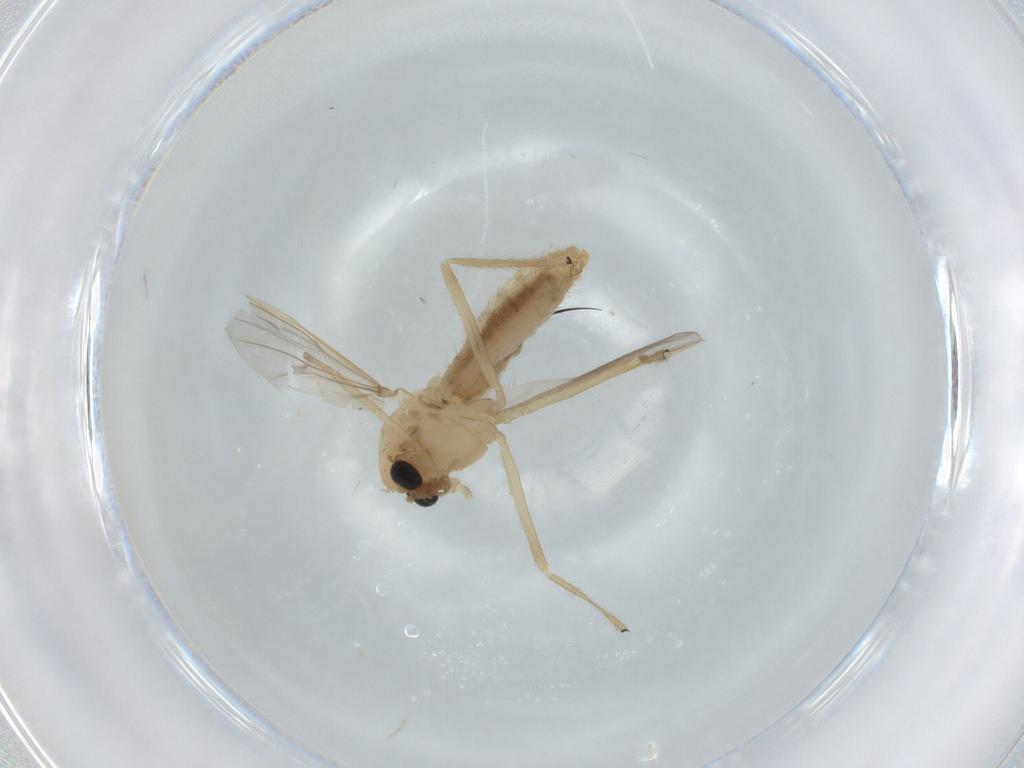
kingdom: Animalia
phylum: Arthropoda
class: Insecta
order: Diptera
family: Chironomidae
